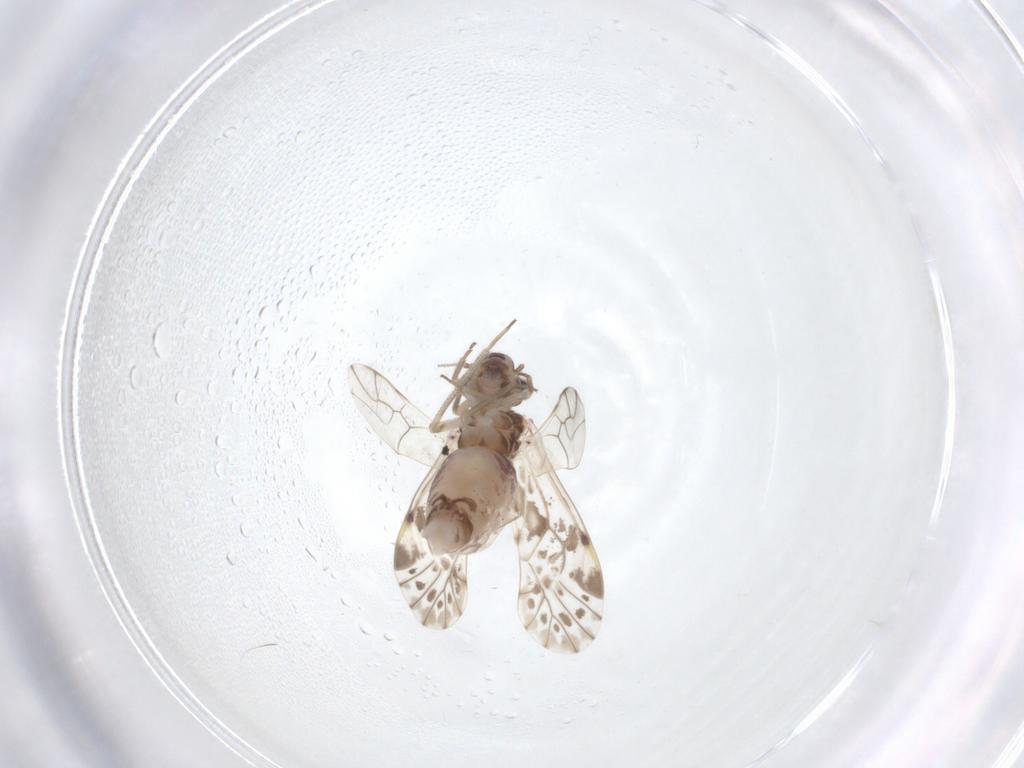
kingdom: Animalia
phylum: Arthropoda
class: Insecta
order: Psocodea
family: Psocidae
